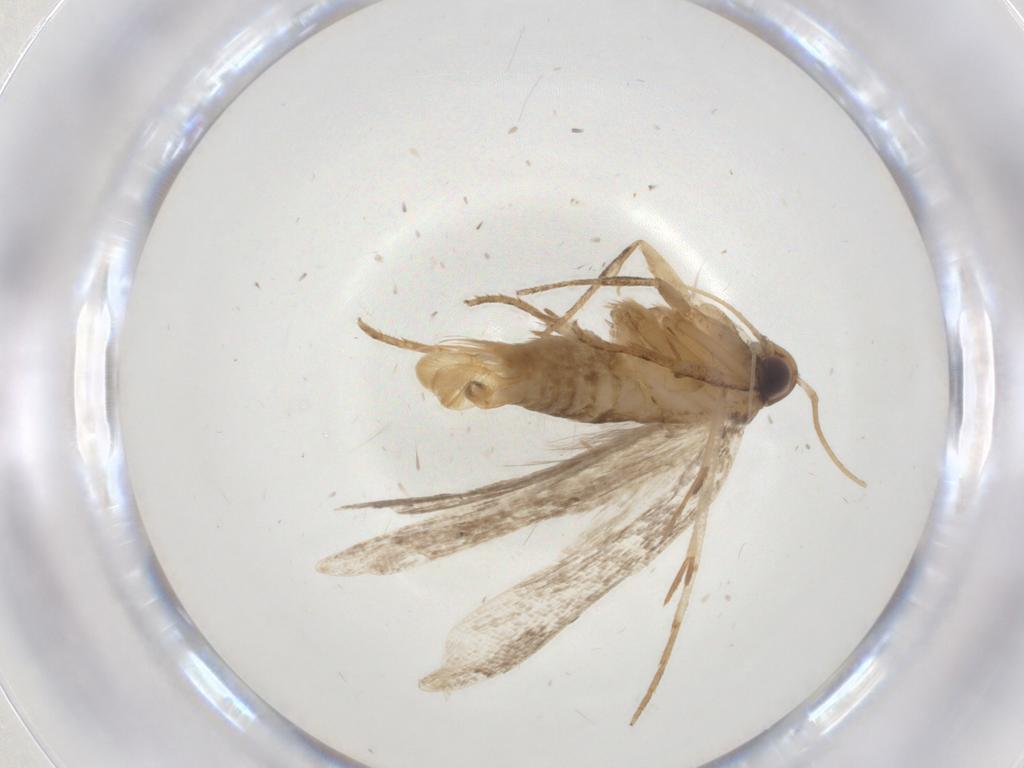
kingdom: Animalia
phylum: Arthropoda
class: Insecta
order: Lepidoptera
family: Gelechiidae
